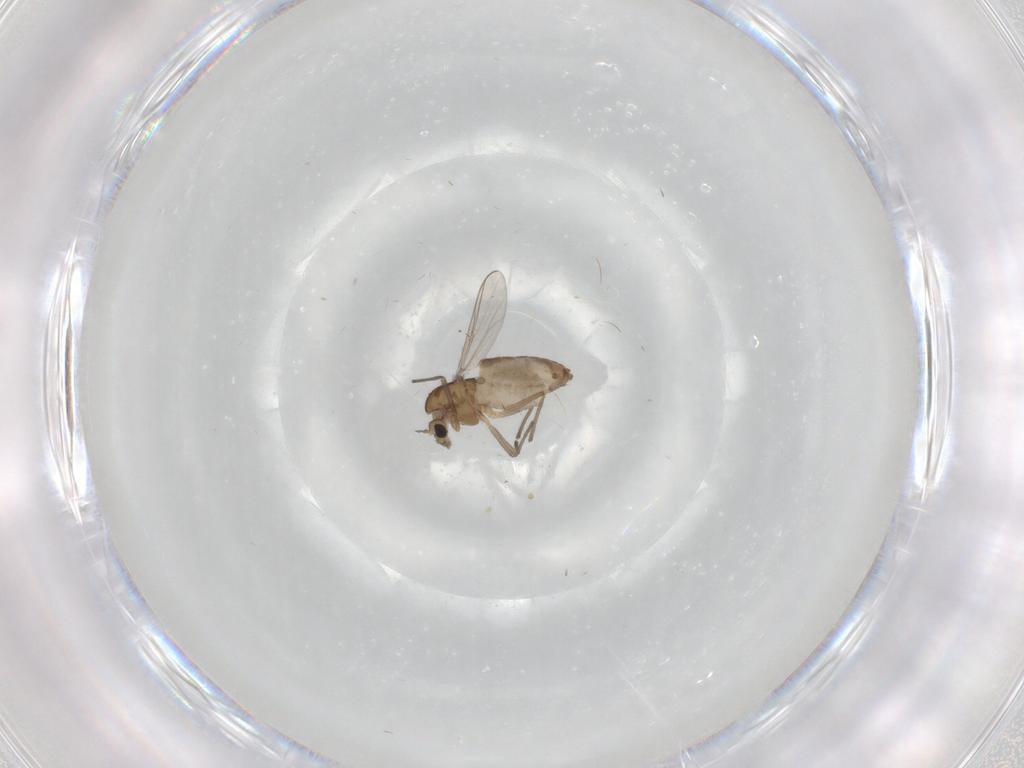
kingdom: Animalia
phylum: Arthropoda
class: Insecta
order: Diptera
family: Chironomidae
